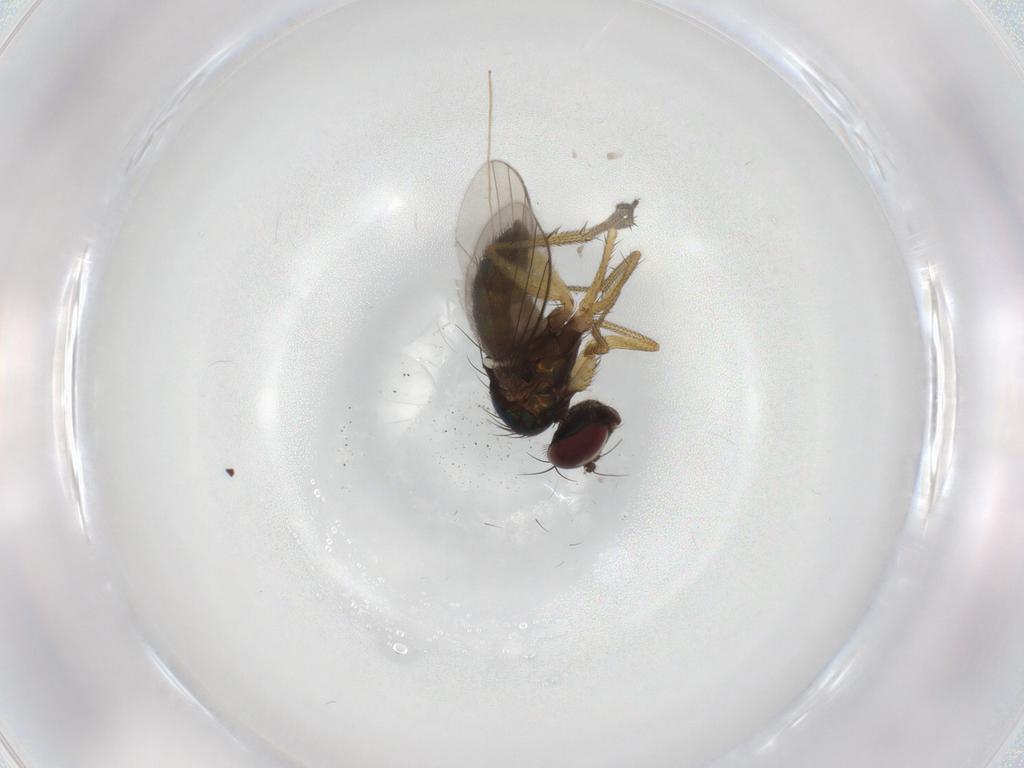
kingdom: Animalia
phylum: Arthropoda
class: Insecta
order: Diptera
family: Chironomidae
